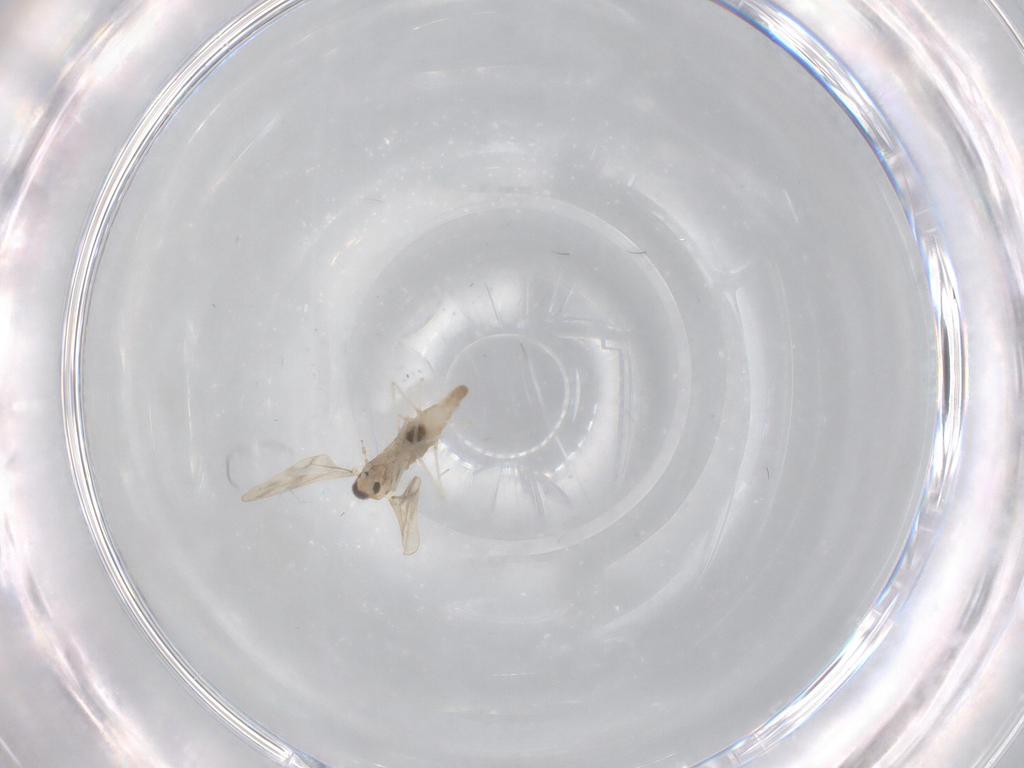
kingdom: Animalia
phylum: Arthropoda
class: Insecta
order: Diptera
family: Cecidomyiidae
